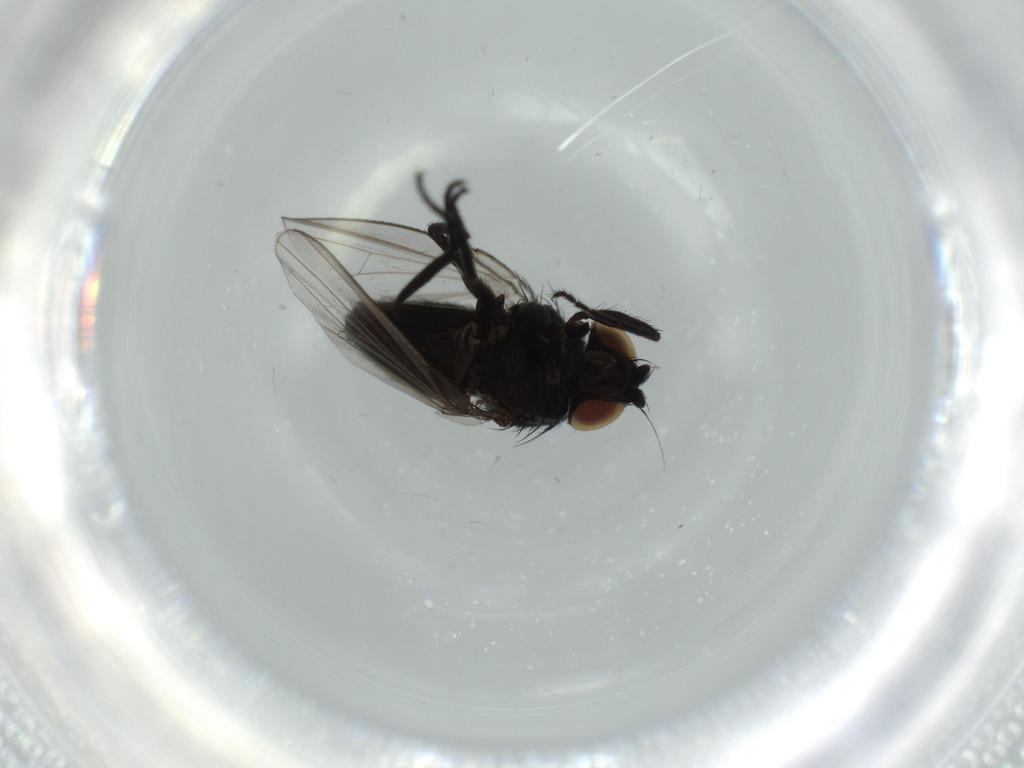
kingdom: Animalia
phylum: Arthropoda
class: Insecta
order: Diptera
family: Milichiidae
